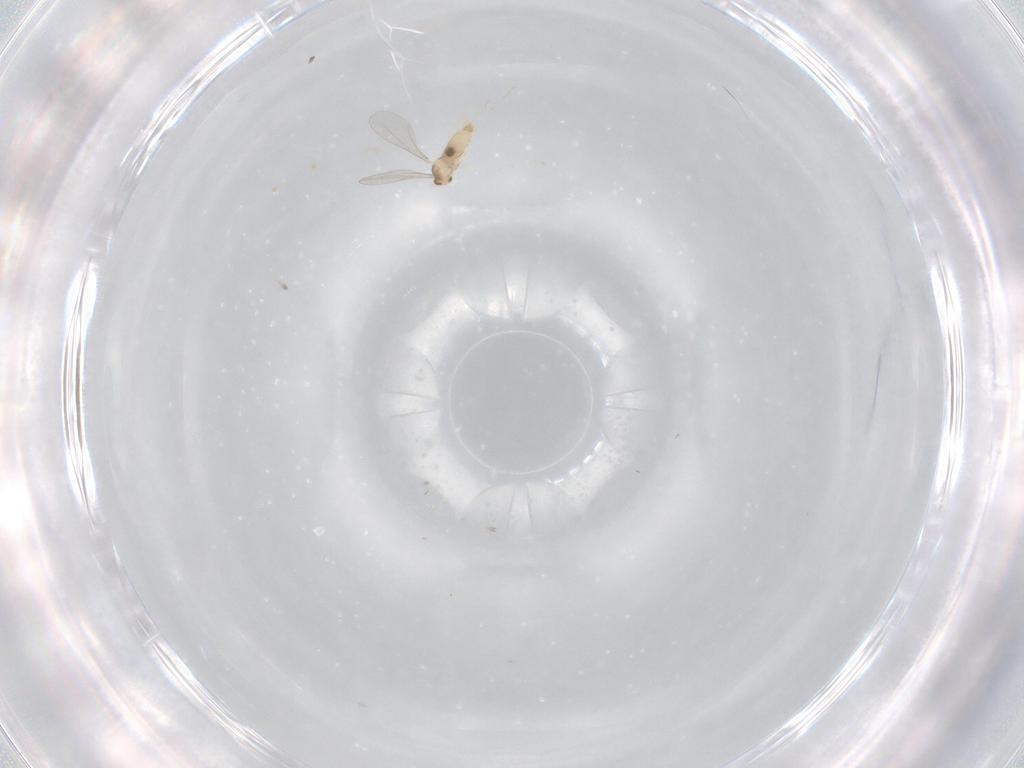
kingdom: Animalia
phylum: Arthropoda
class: Insecta
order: Diptera
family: Cecidomyiidae
